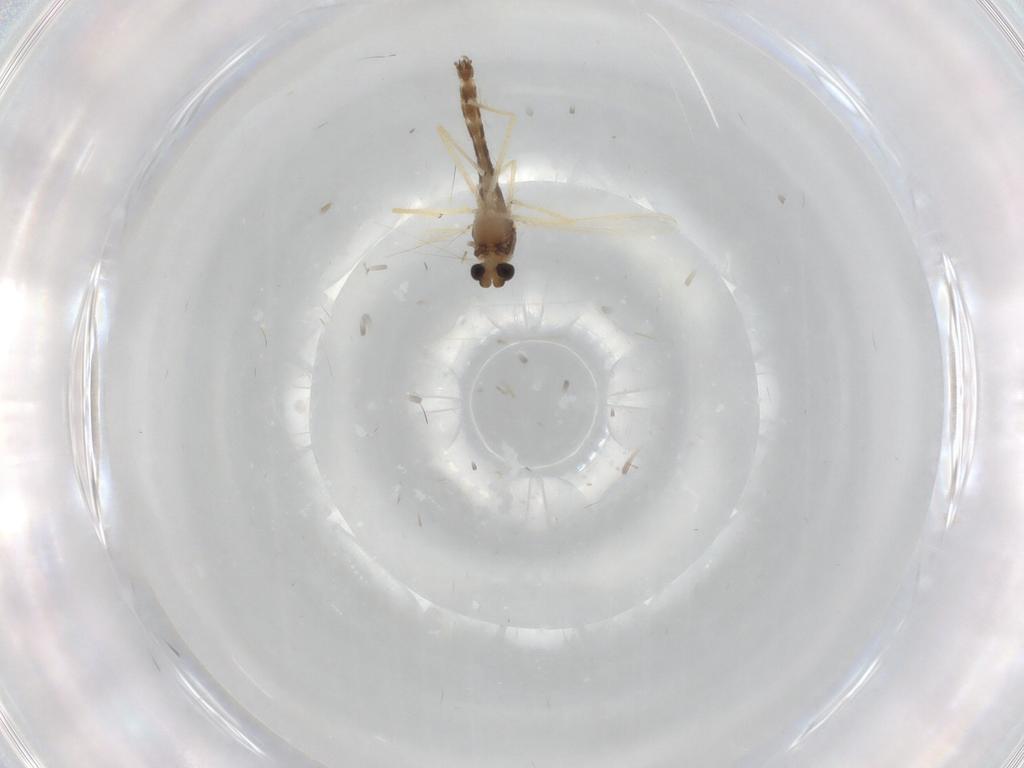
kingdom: Animalia
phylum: Arthropoda
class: Insecta
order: Diptera
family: Chironomidae
